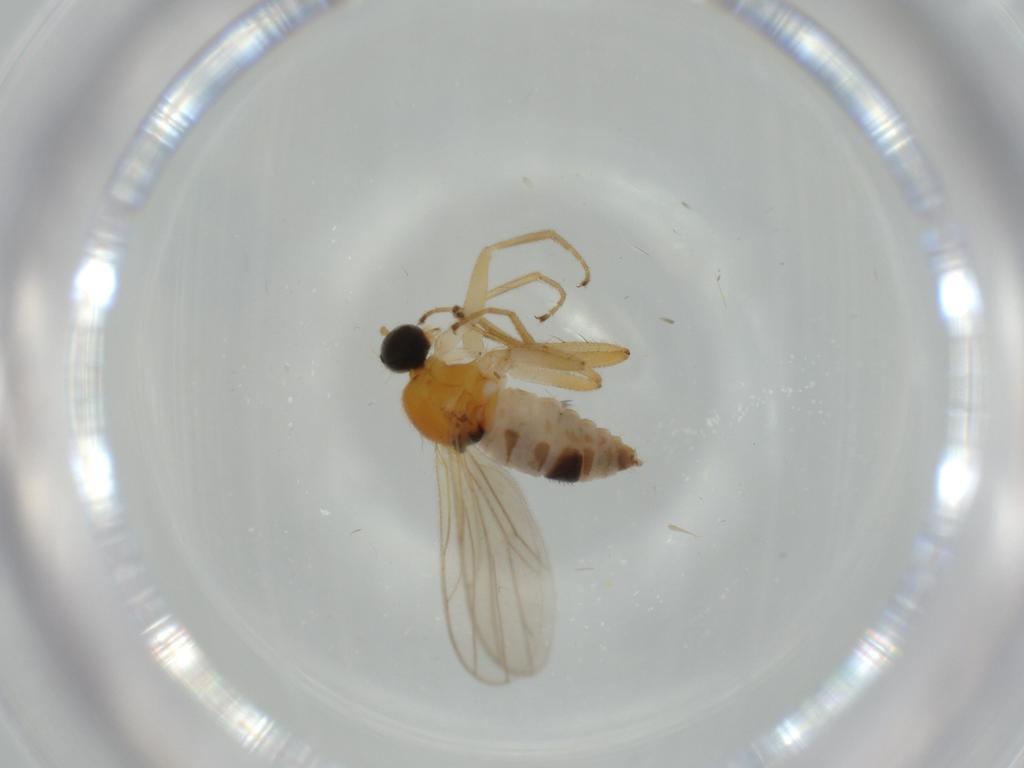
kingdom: Animalia
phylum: Arthropoda
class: Insecta
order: Diptera
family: Hybotidae
